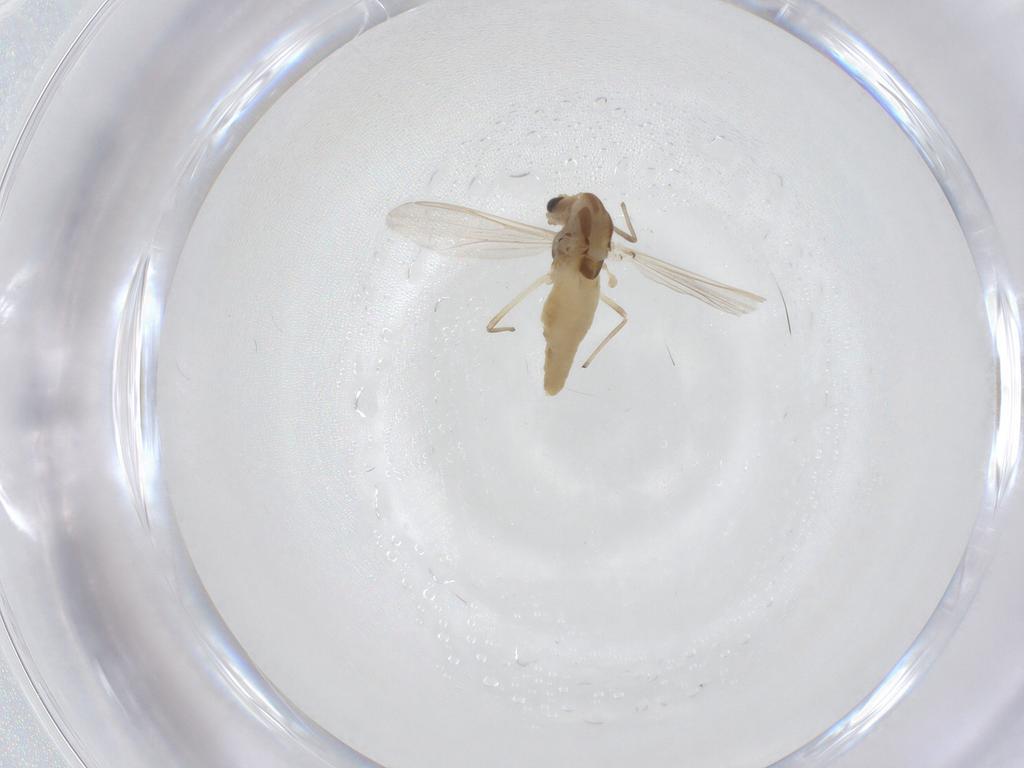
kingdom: Animalia
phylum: Arthropoda
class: Insecta
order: Diptera
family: Chironomidae
